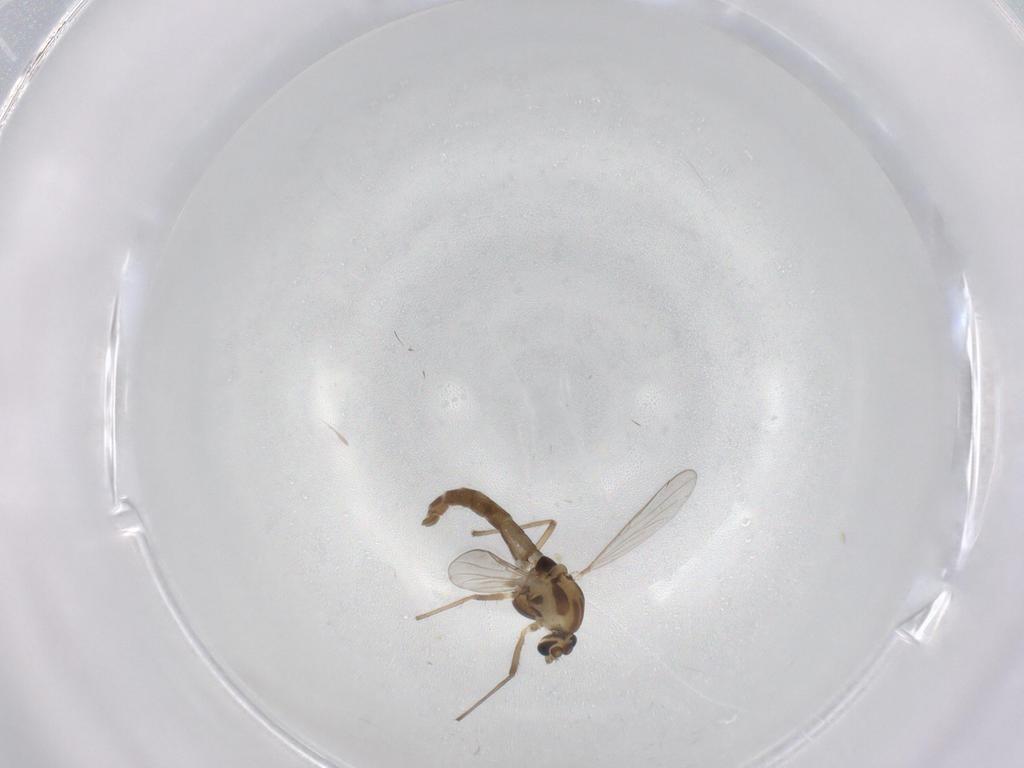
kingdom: Animalia
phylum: Arthropoda
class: Insecta
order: Diptera
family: Chironomidae
